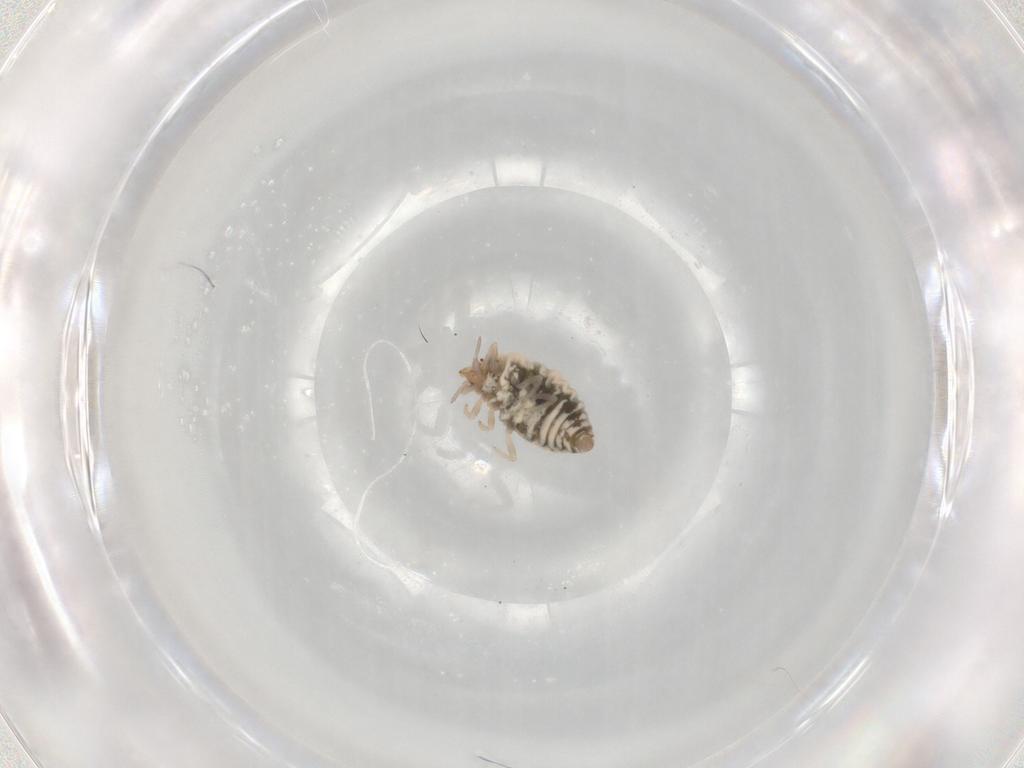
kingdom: Animalia
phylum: Arthropoda
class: Insecta
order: Neuroptera
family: Coniopterygidae
